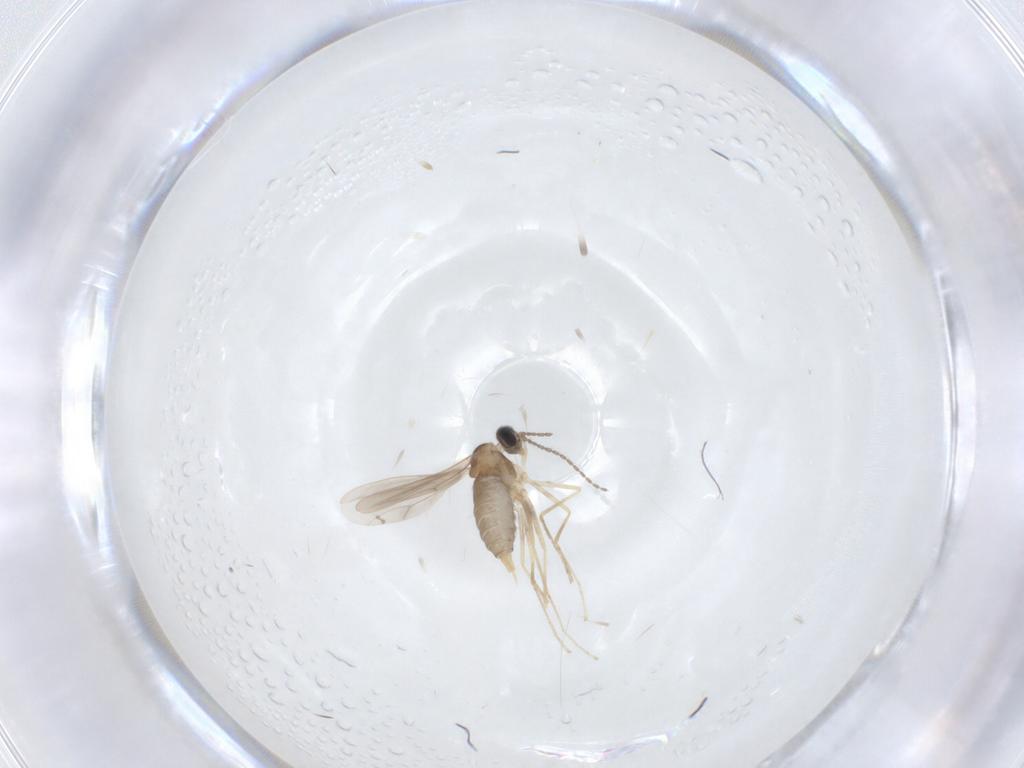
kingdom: Animalia
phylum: Arthropoda
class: Insecta
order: Diptera
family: Cecidomyiidae
